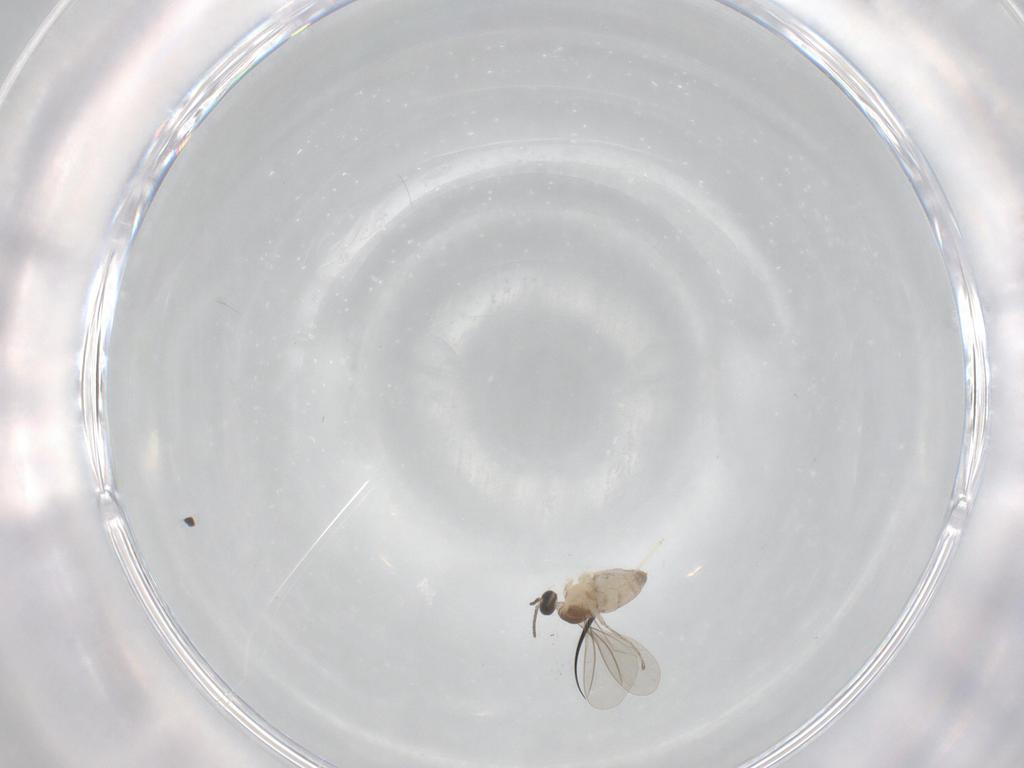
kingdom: Animalia
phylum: Arthropoda
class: Insecta
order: Diptera
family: Cecidomyiidae
